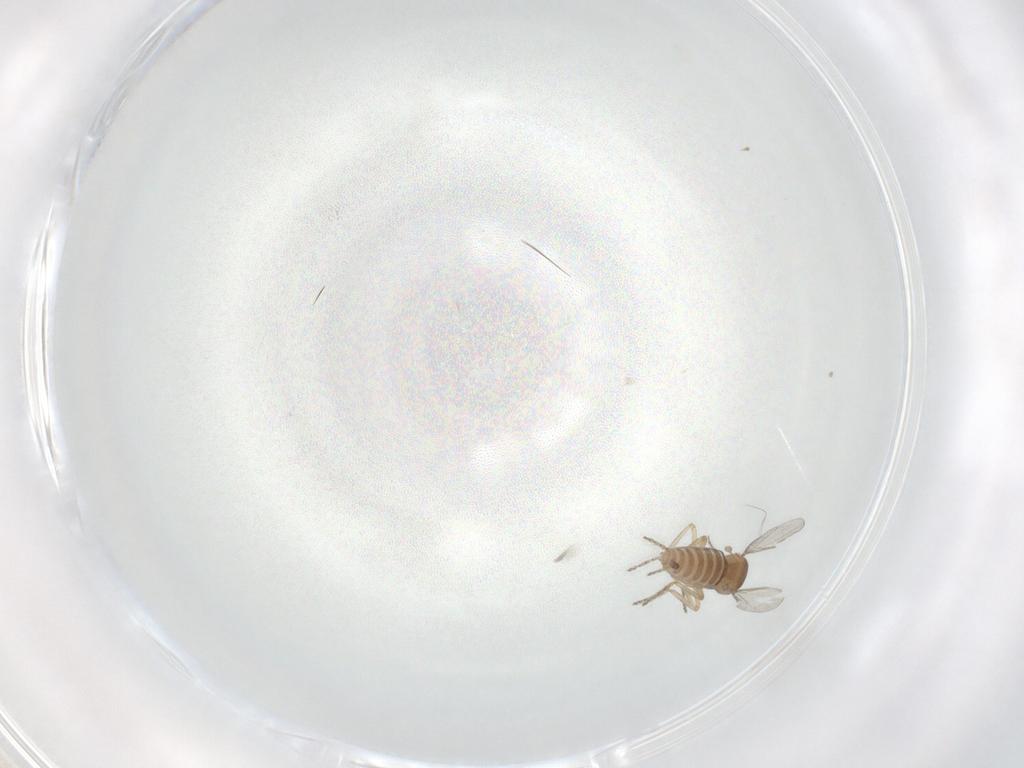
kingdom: Animalia
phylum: Arthropoda
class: Insecta
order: Diptera
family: Ceratopogonidae
